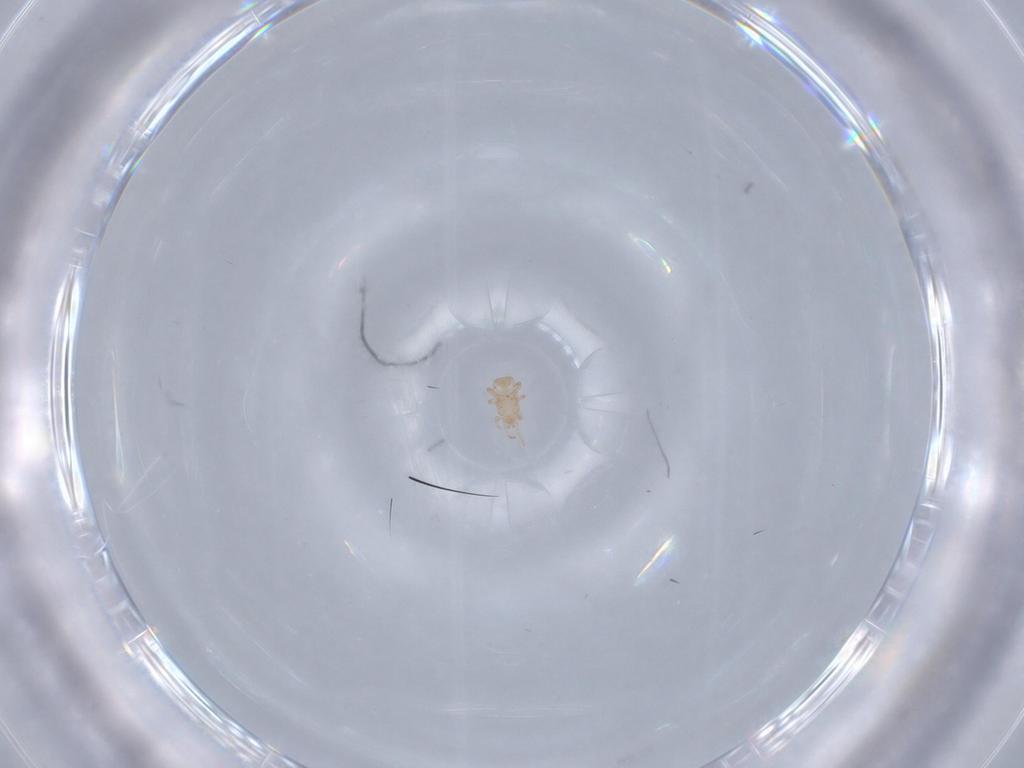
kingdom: Animalia
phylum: Arthropoda
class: Arachnida
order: Mesostigmata
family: Digamasellidae
